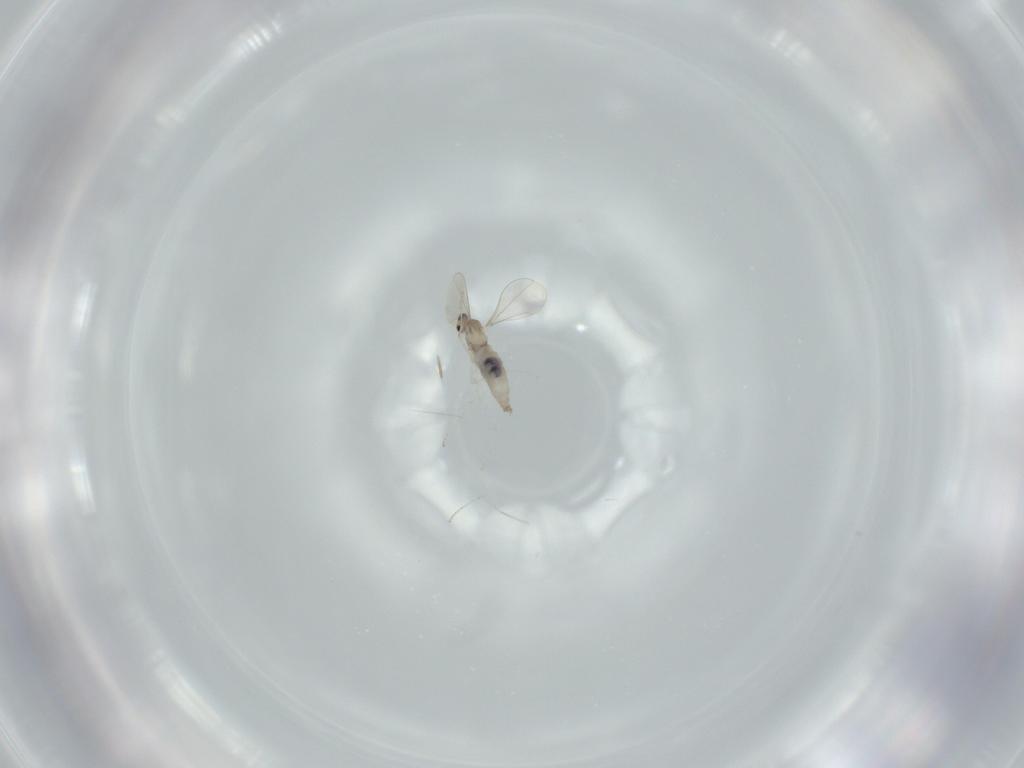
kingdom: Animalia
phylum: Arthropoda
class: Insecta
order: Diptera
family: Cecidomyiidae
